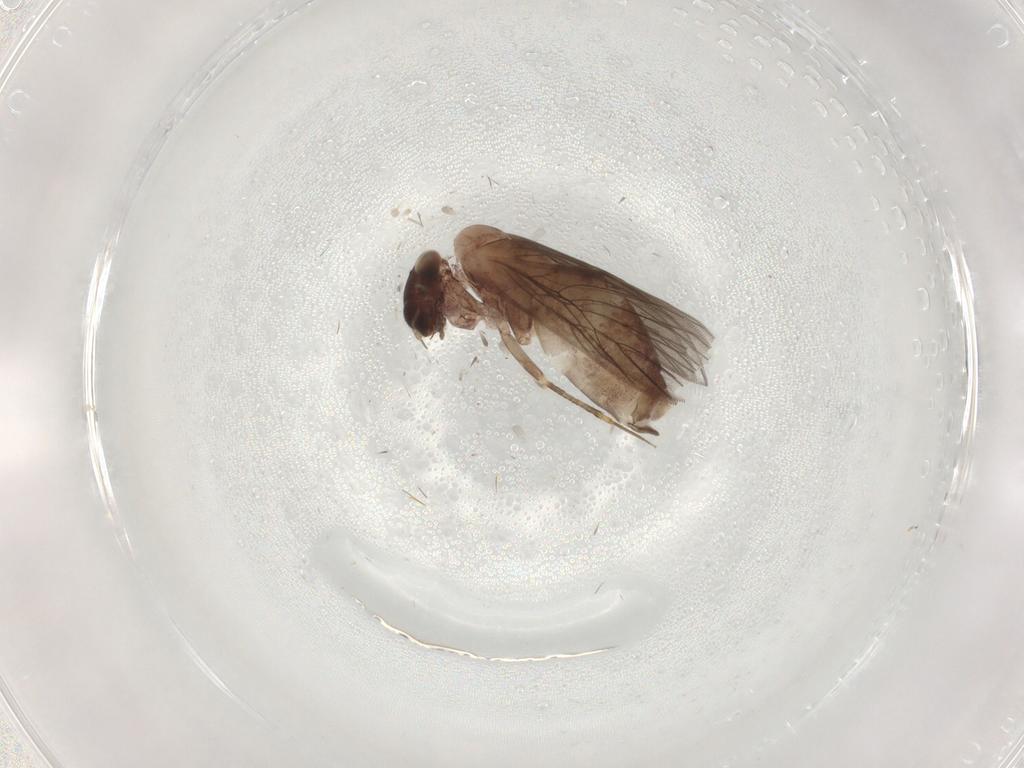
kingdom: Animalia
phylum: Arthropoda
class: Insecta
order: Psocodea
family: Lepidopsocidae
